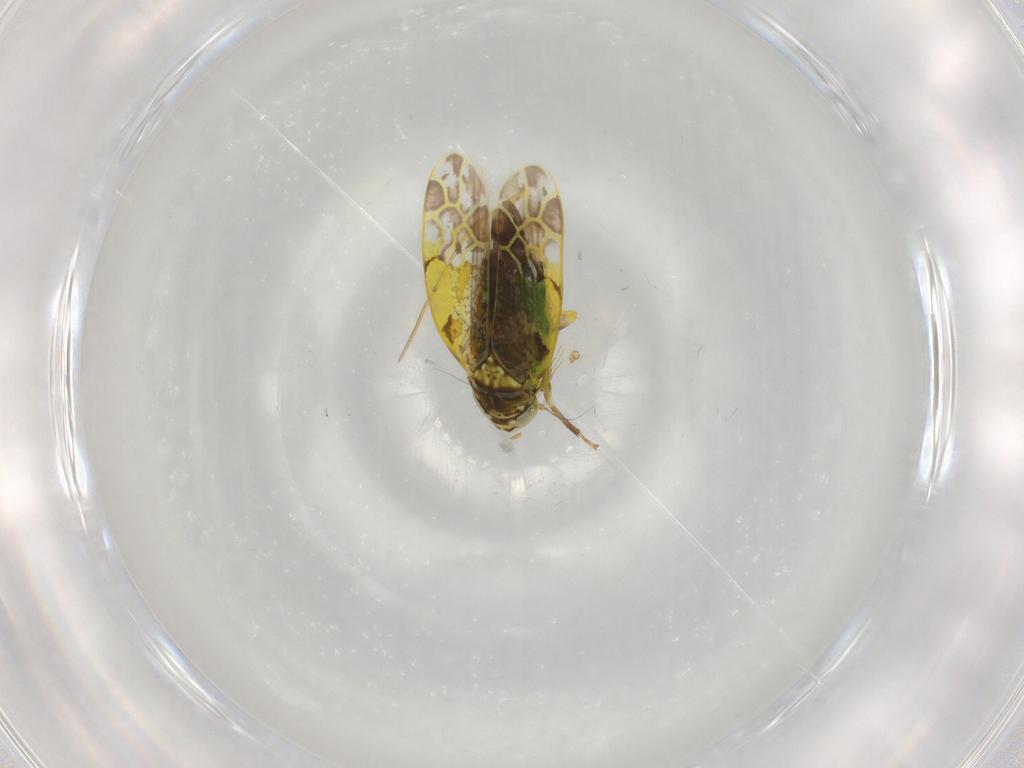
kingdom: Animalia
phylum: Arthropoda
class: Insecta
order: Hemiptera
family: Cicadellidae
